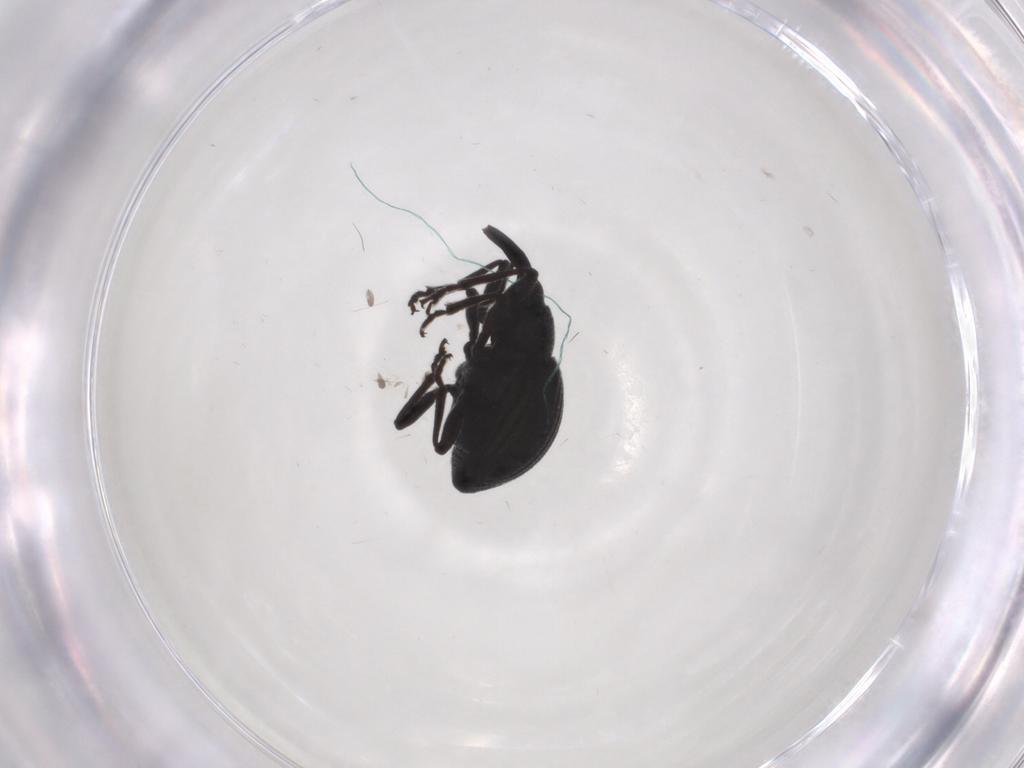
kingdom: Animalia
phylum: Arthropoda
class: Insecta
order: Coleoptera
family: Brentidae
